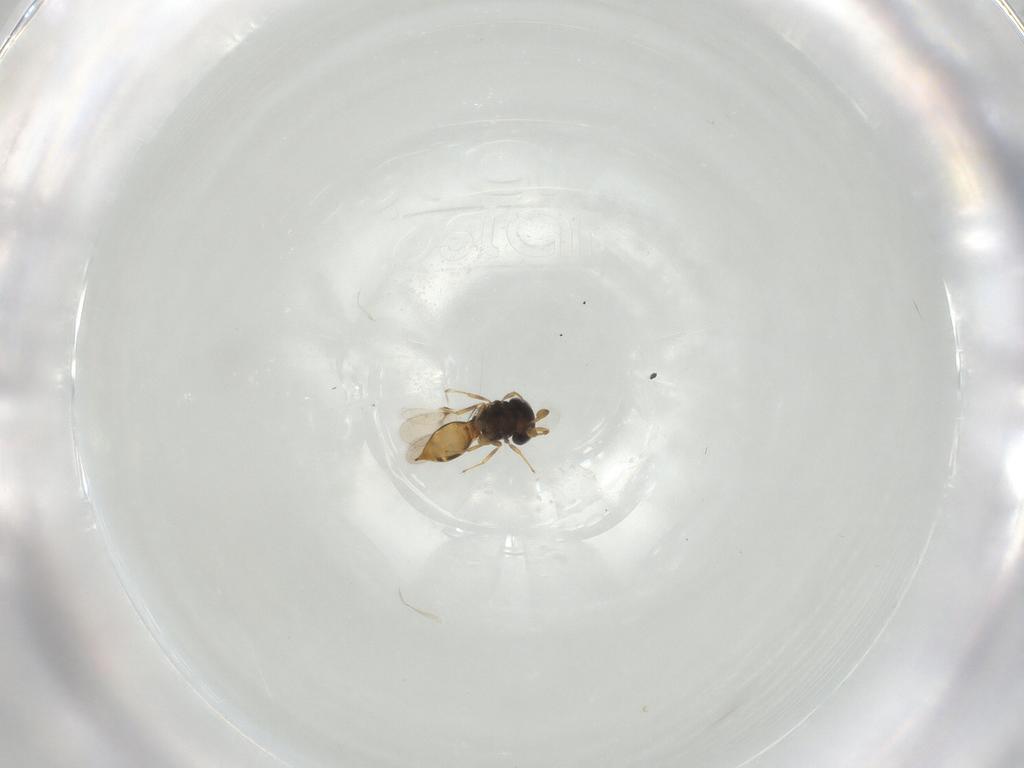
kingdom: Animalia
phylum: Arthropoda
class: Insecta
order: Hymenoptera
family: Scelionidae
